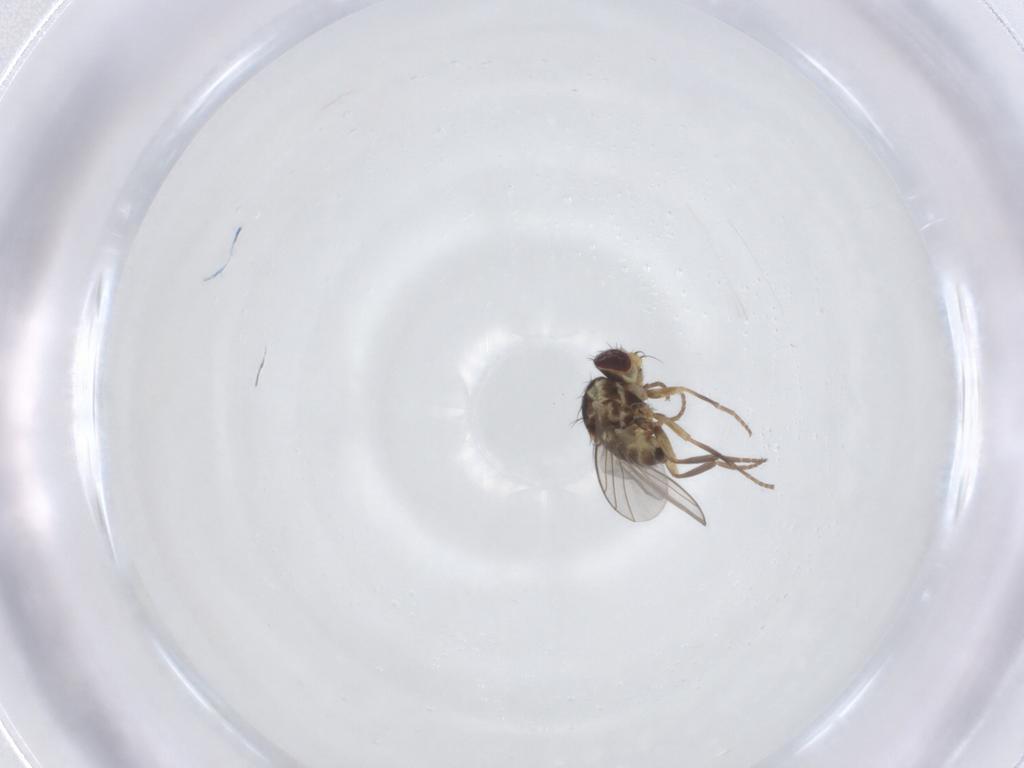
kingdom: Animalia
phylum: Arthropoda
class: Insecta
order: Diptera
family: Agromyzidae
